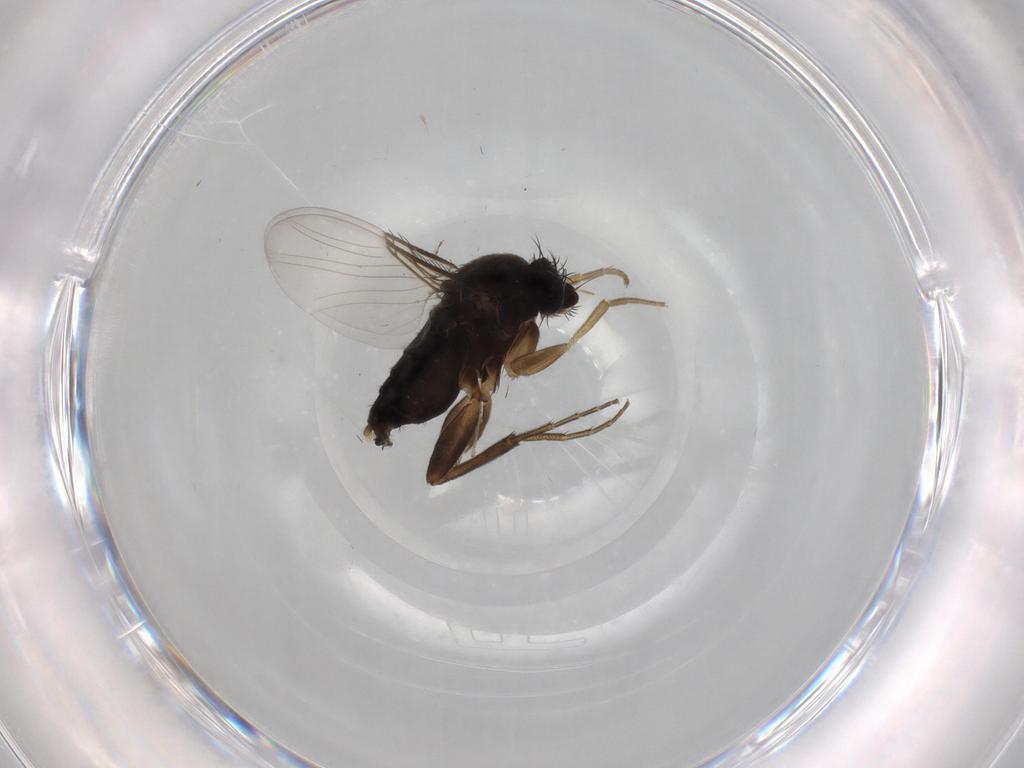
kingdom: Animalia
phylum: Arthropoda
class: Insecta
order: Diptera
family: Phoridae
